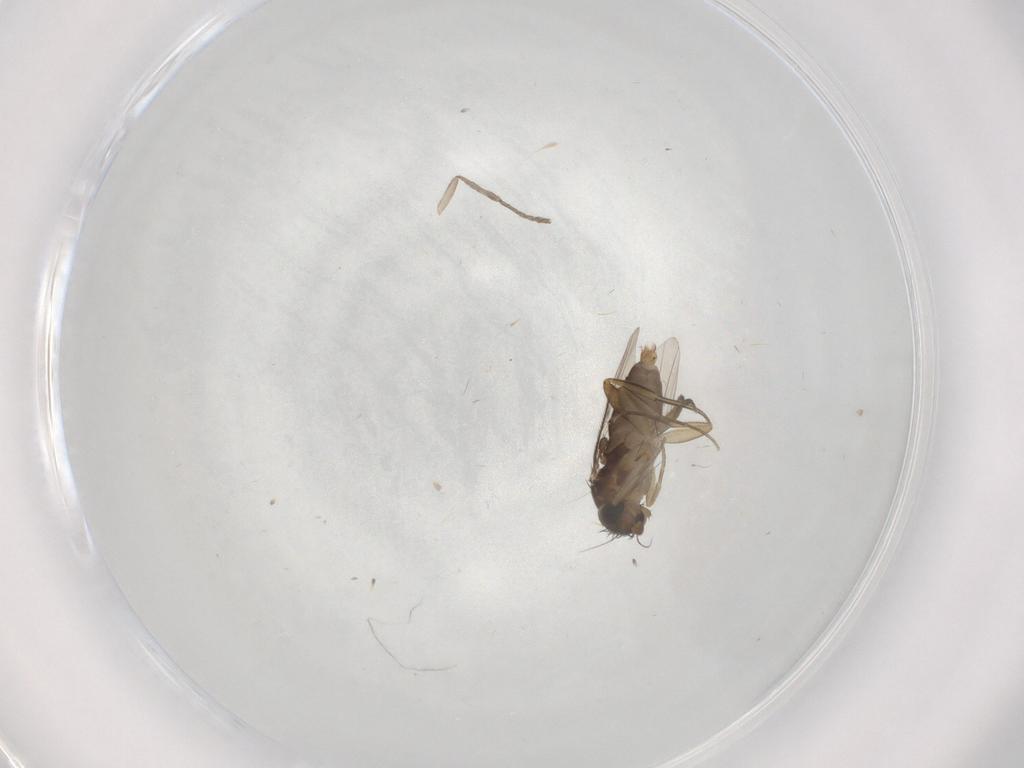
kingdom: Animalia
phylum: Arthropoda
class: Insecta
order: Diptera
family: Phoridae
